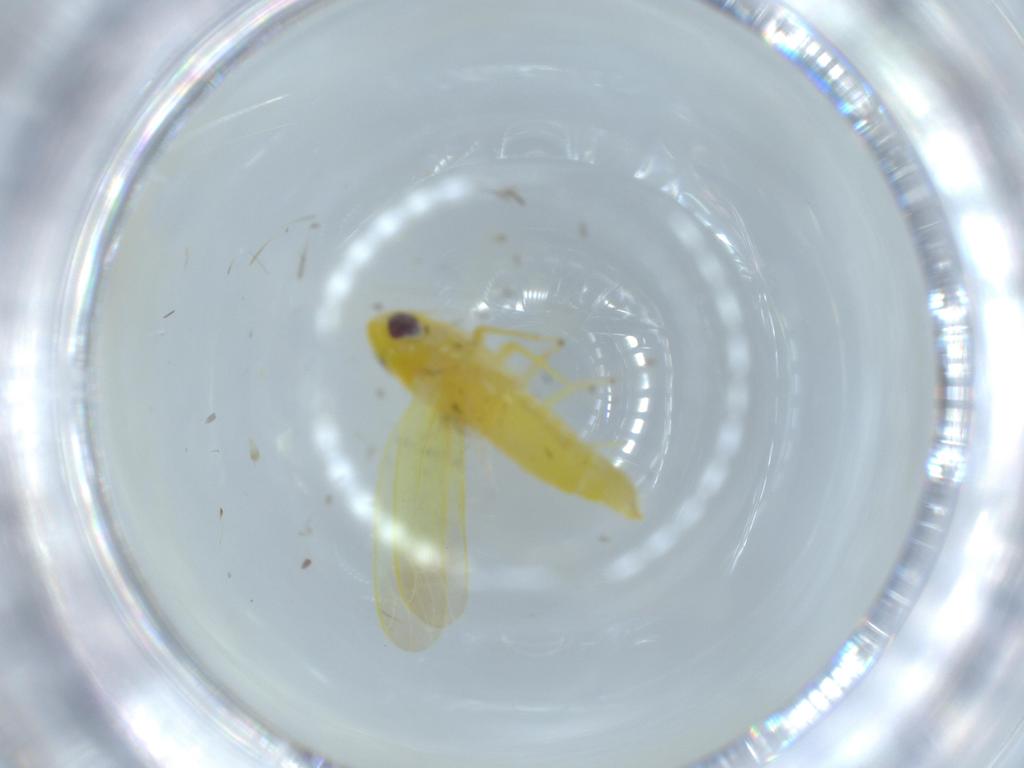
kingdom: Animalia
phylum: Arthropoda
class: Insecta
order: Hemiptera
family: Cicadellidae
